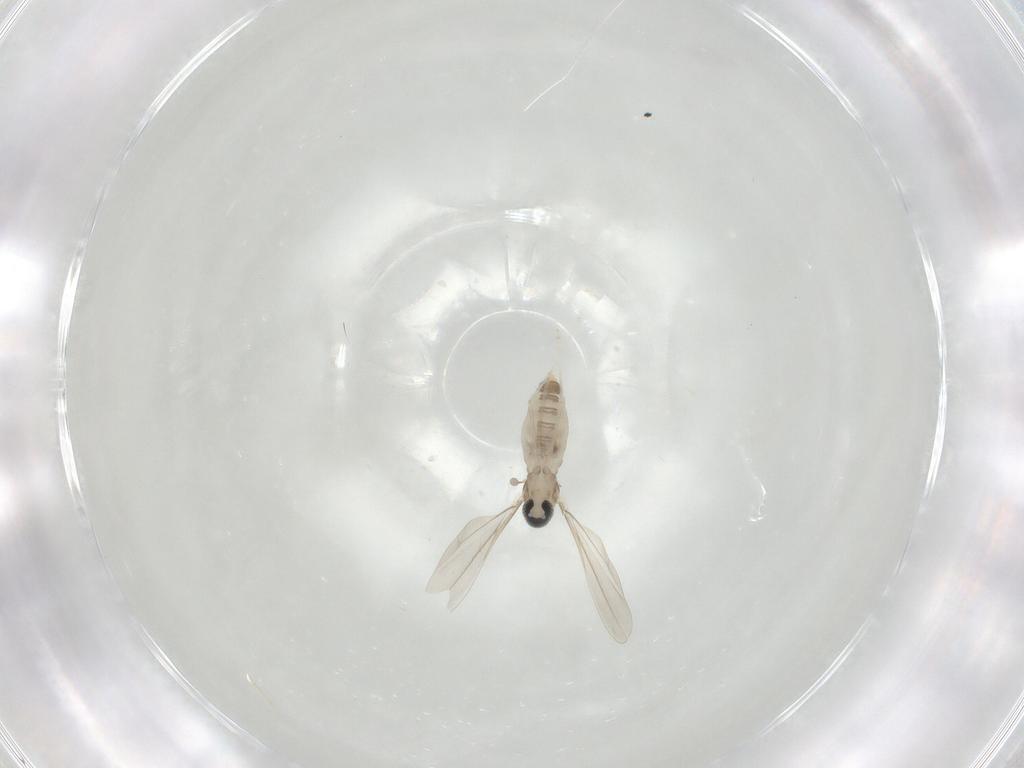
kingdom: Animalia
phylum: Arthropoda
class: Insecta
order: Diptera
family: Cecidomyiidae
